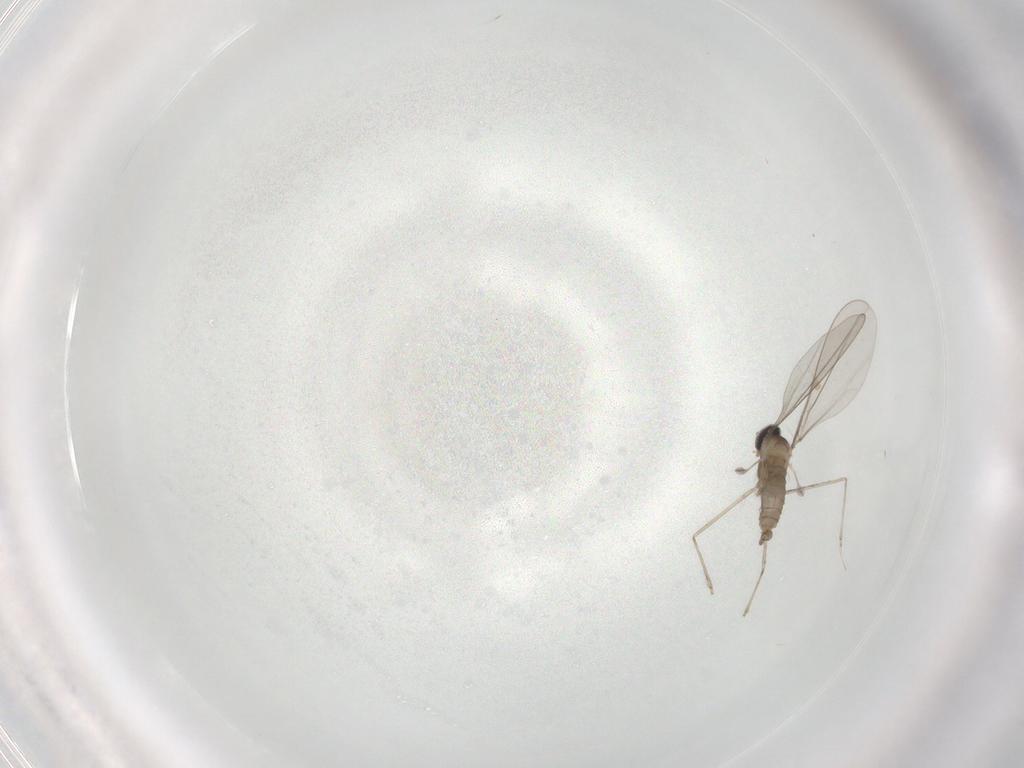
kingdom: Animalia
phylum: Arthropoda
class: Insecta
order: Diptera
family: Cecidomyiidae
